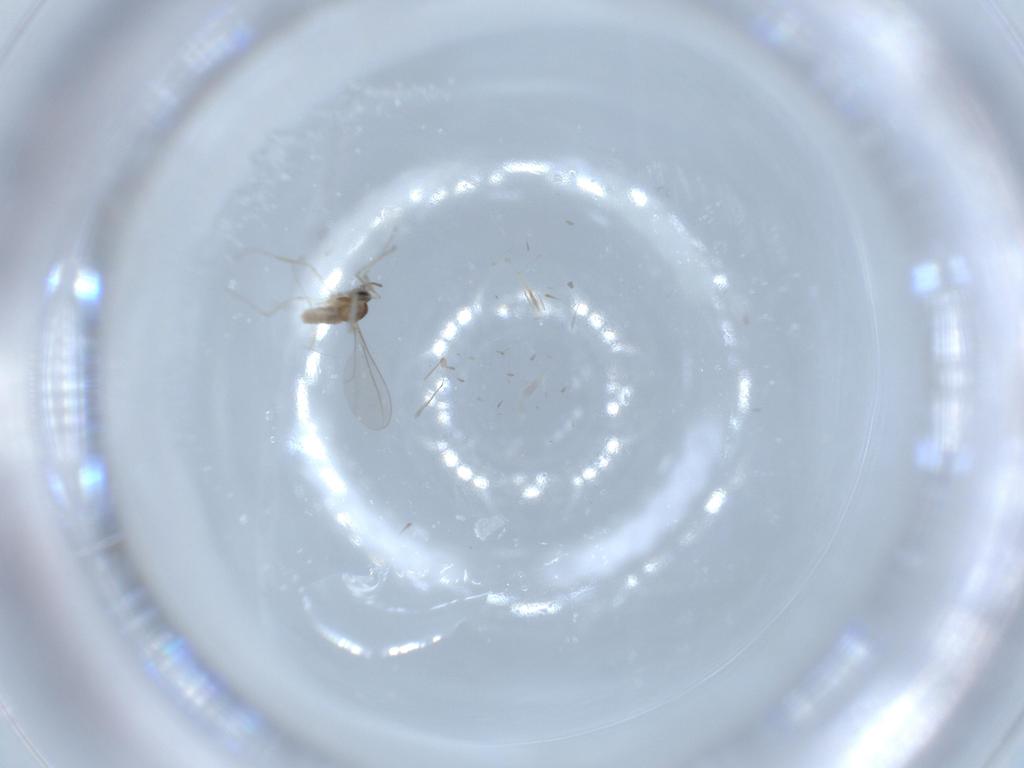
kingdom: Animalia
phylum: Arthropoda
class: Insecta
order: Diptera
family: Cecidomyiidae
